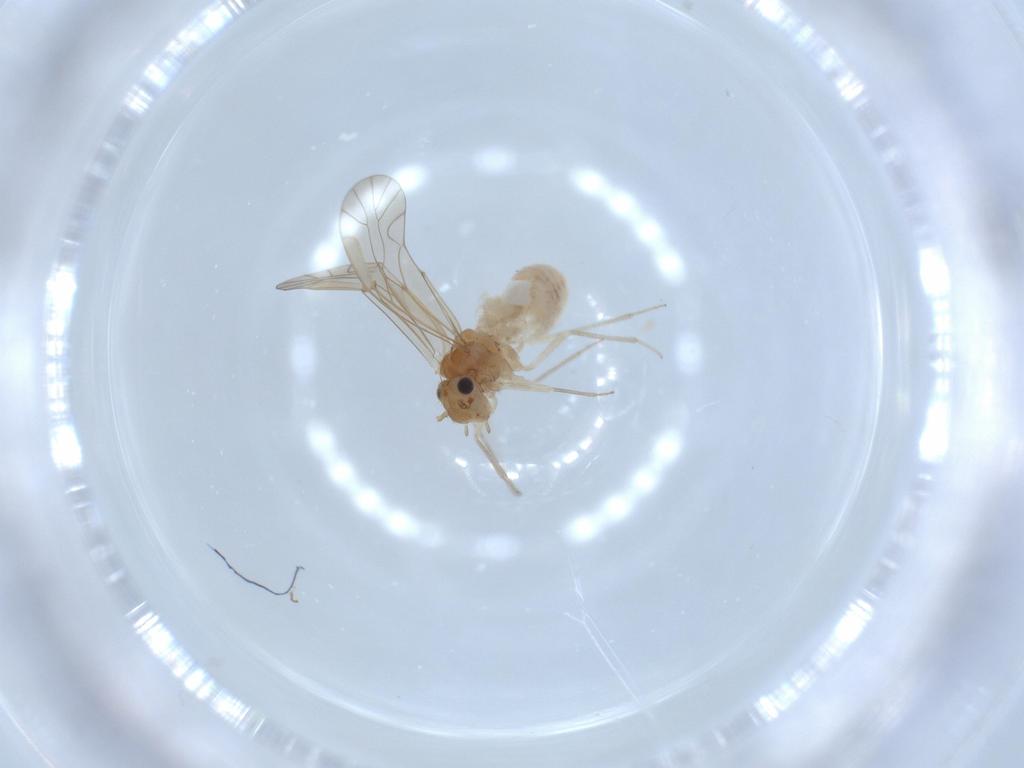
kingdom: Animalia
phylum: Arthropoda
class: Insecta
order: Psocodea
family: Lachesillidae
